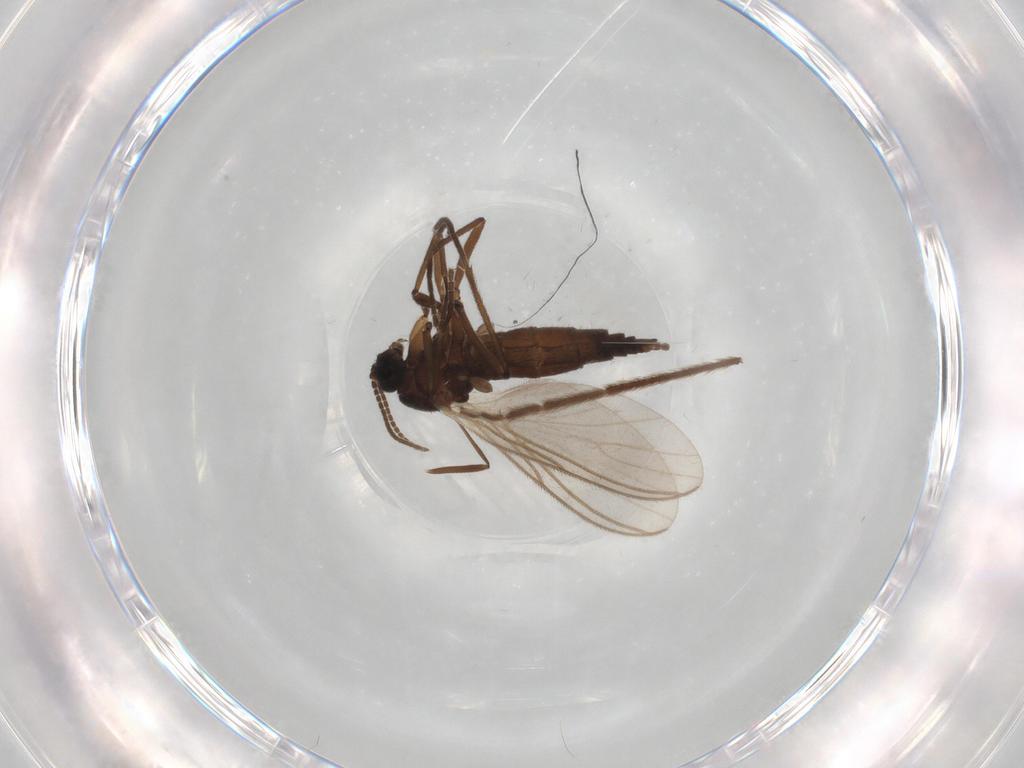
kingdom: Animalia
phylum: Arthropoda
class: Insecta
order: Diptera
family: Sciaridae
